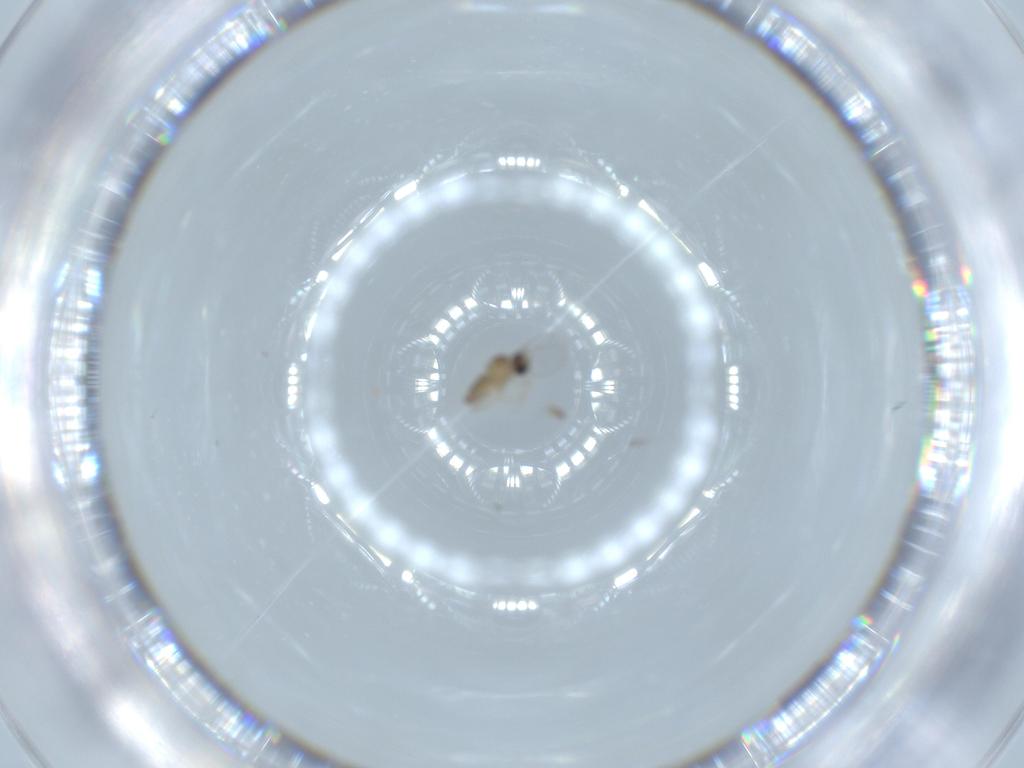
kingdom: Animalia
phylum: Arthropoda
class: Insecta
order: Diptera
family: Cecidomyiidae
